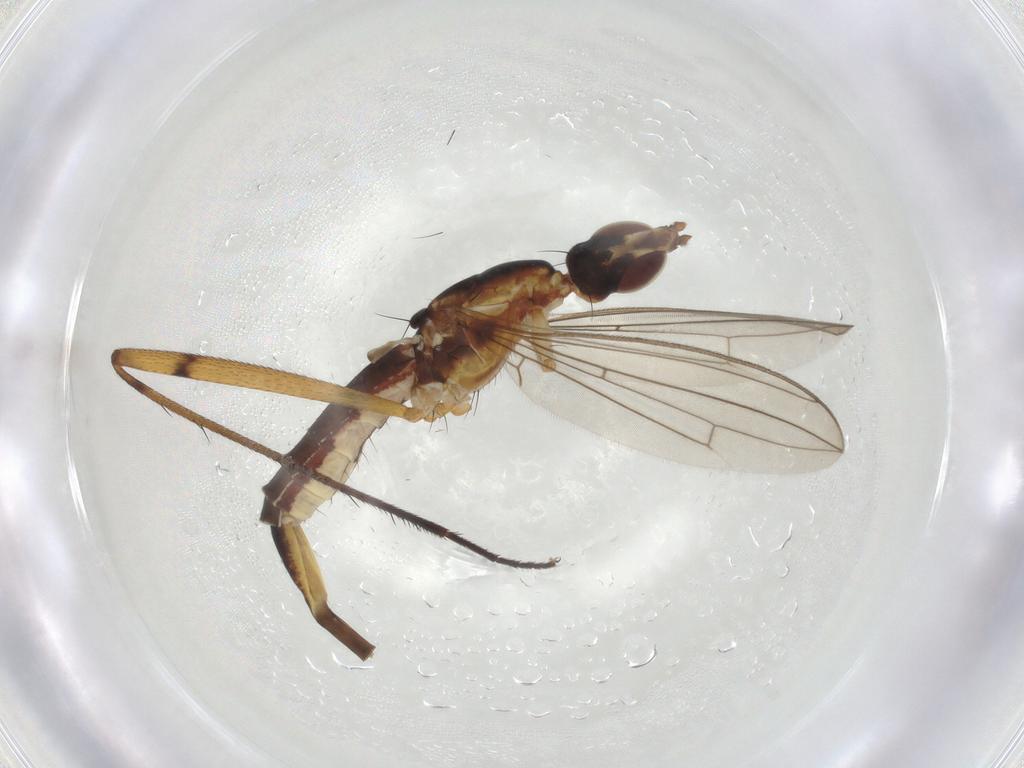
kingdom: Animalia
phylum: Arthropoda
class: Insecta
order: Diptera
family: Micropezidae
